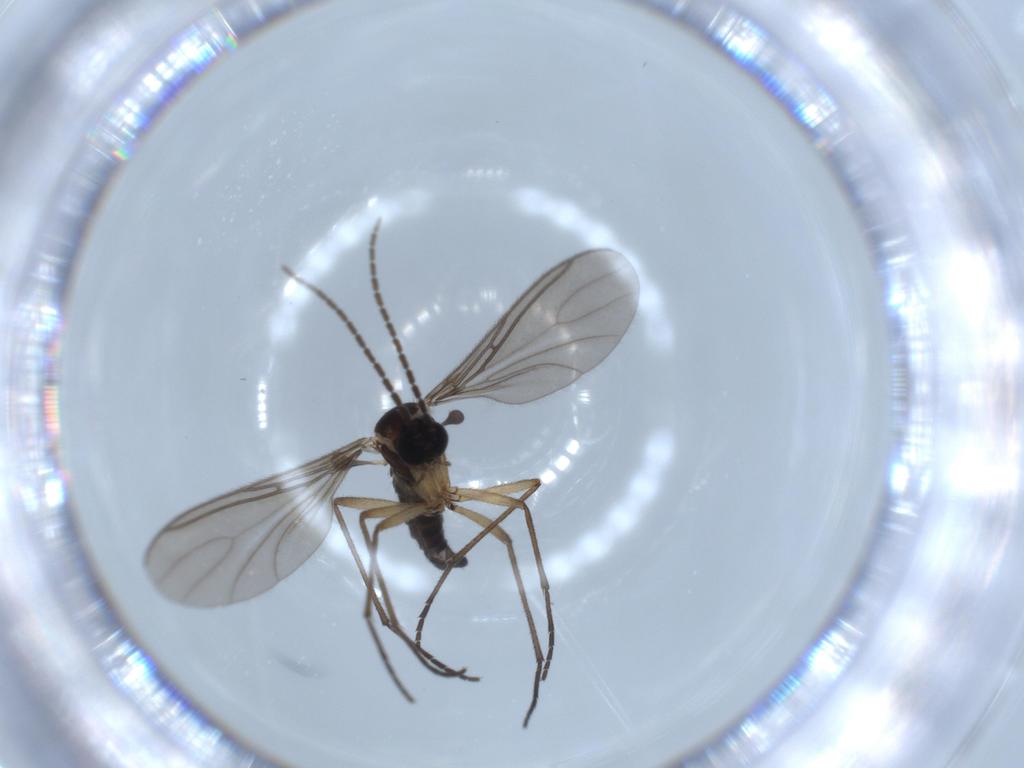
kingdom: Animalia
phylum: Arthropoda
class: Insecta
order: Diptera
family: Sciaridae
